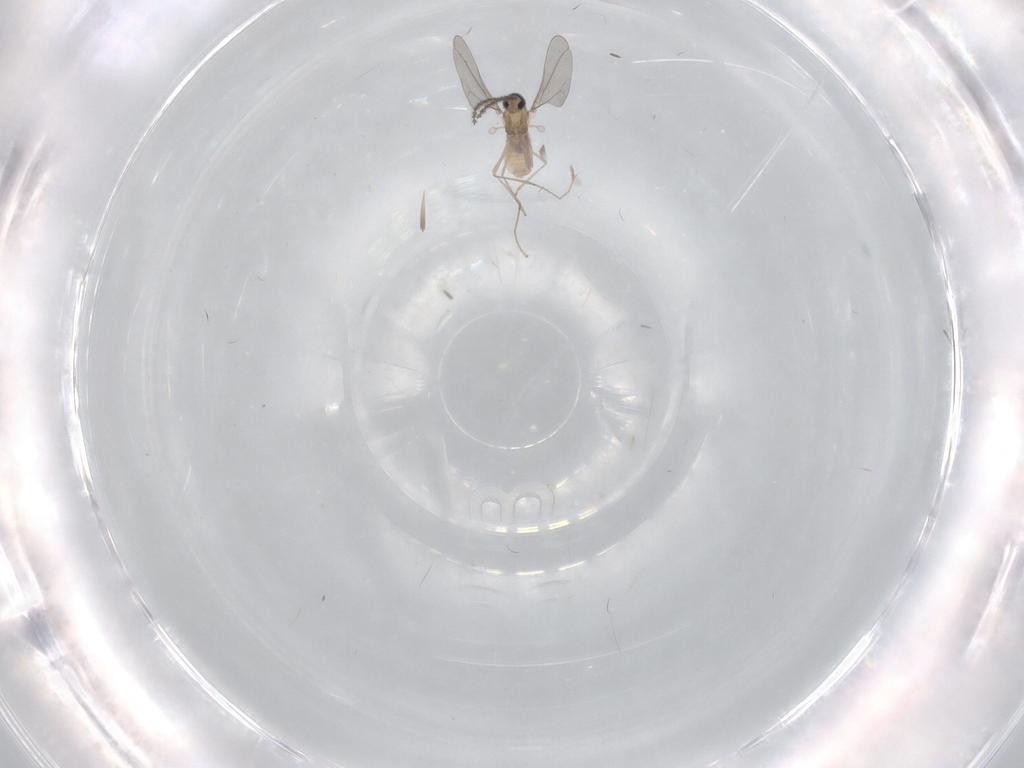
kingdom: Animalia
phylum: Arthropoda
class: Insecta
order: Diptera
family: Cecidomyiidae
